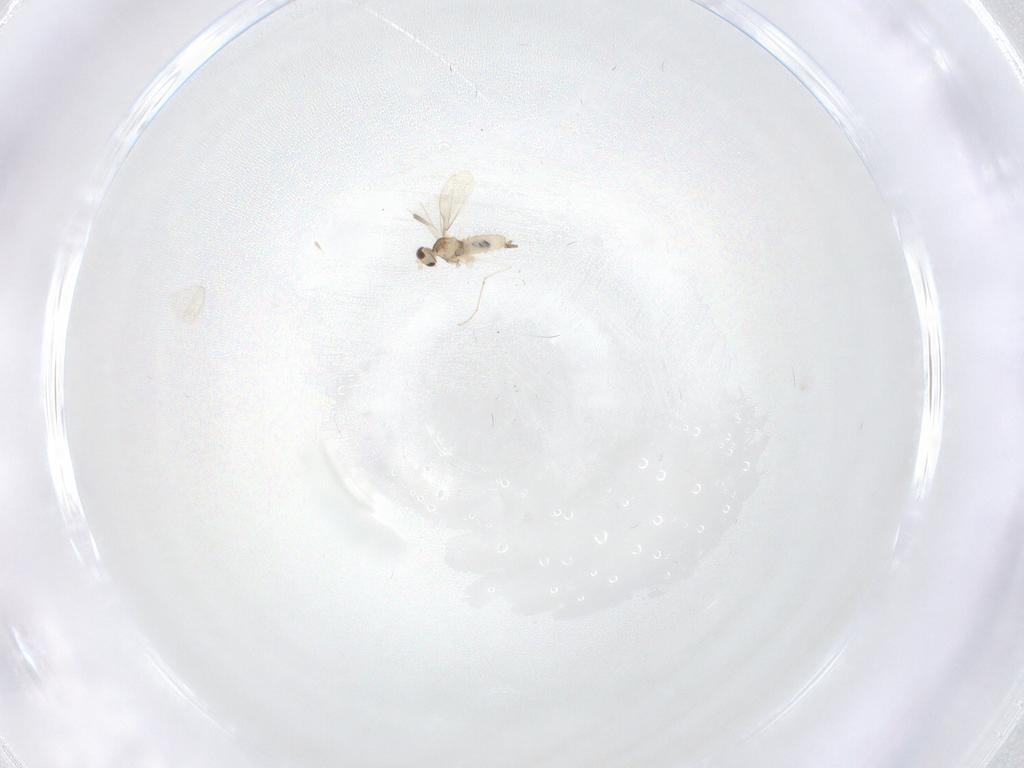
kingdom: Animalia
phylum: Arthropoda
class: Insecta
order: Diptera
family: Cecidomyiidae
